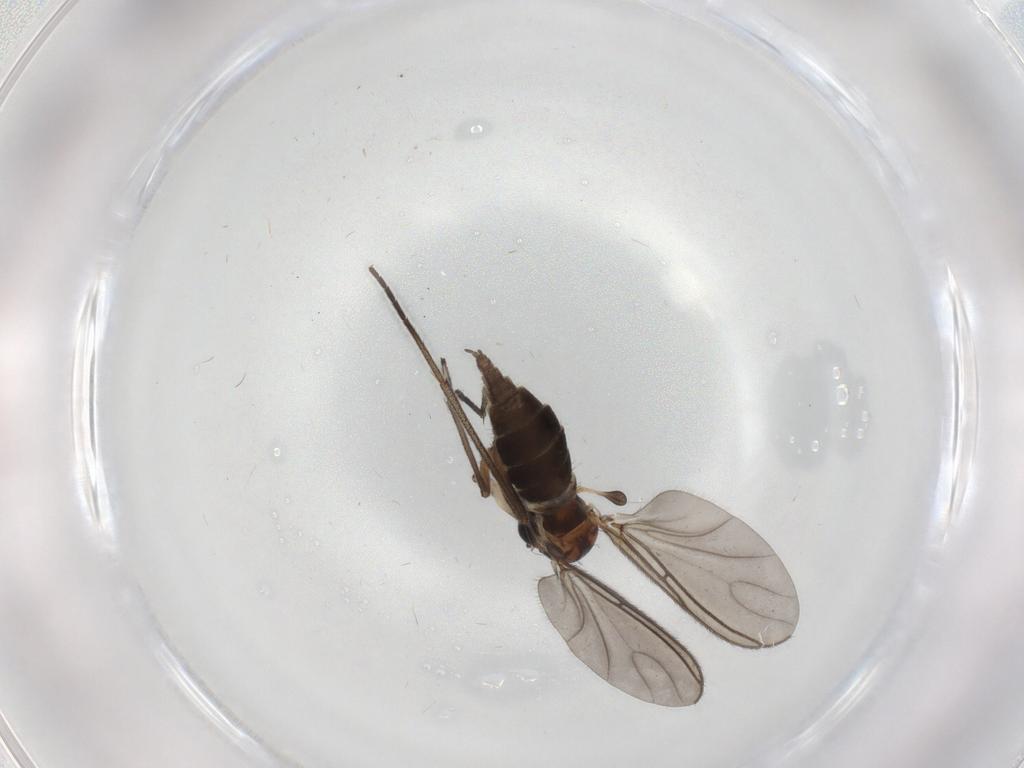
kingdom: Animalia
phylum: Arthropoda
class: Insecta
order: Diptera
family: Sciaridae
